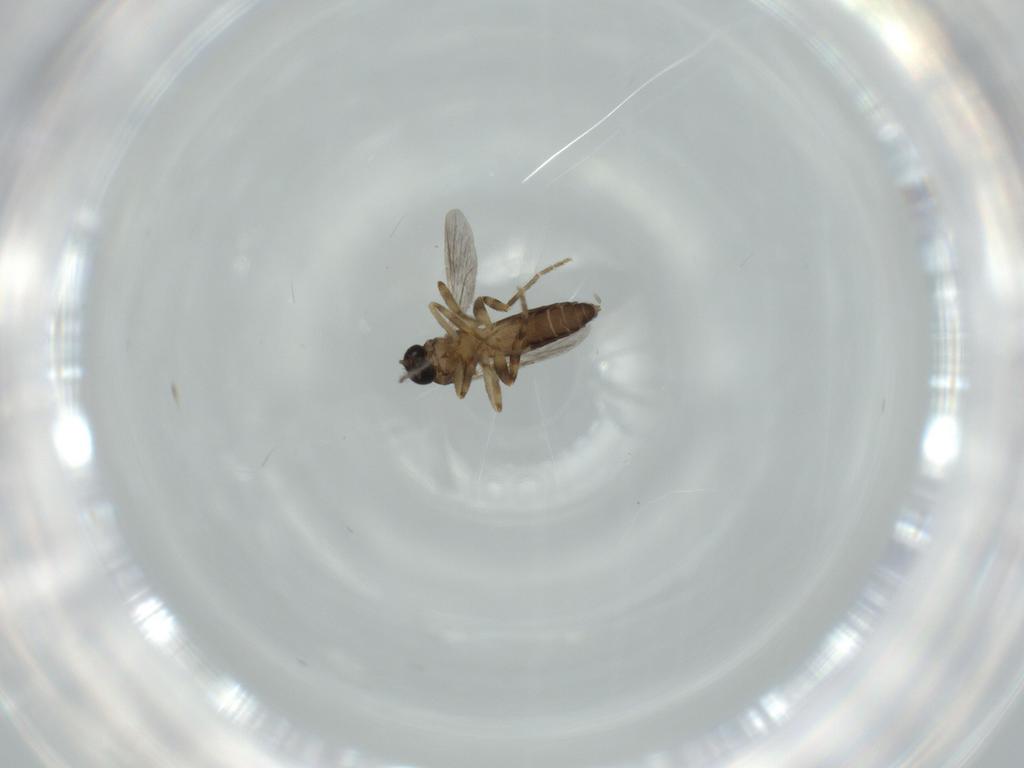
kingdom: Animalia
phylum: Arthropoda
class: Insecta
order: Diptera
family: Ceratopogonidae
